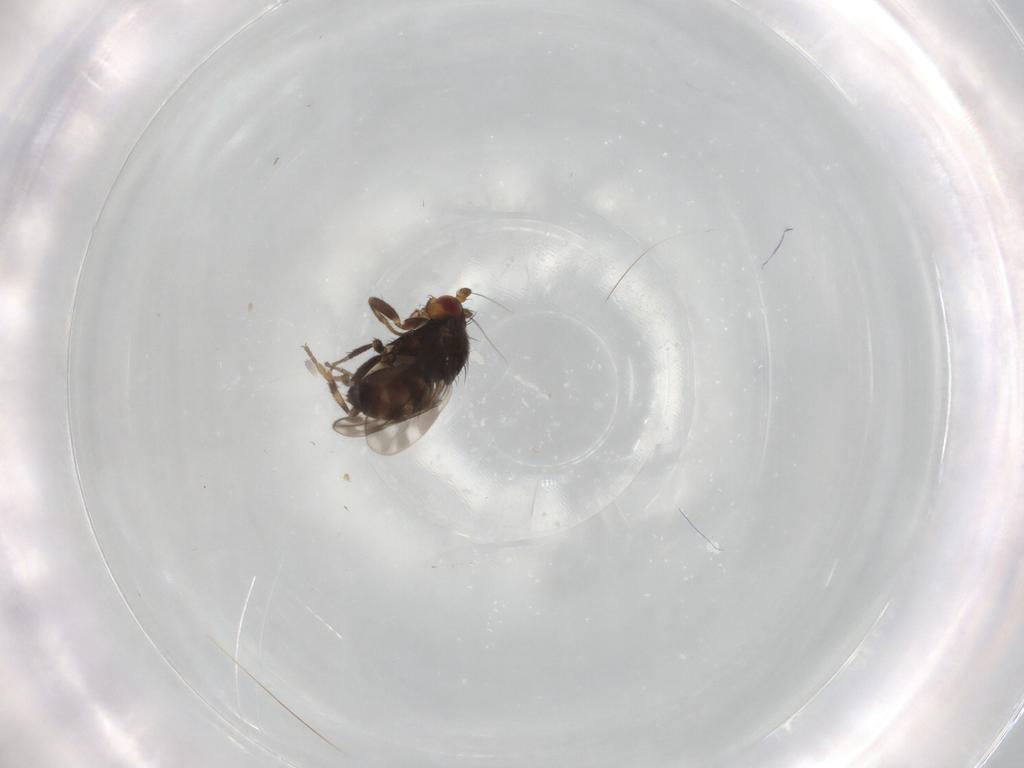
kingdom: Animalia
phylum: Arthropoda
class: Insecta
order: Diptera
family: Sphaeroceridae
